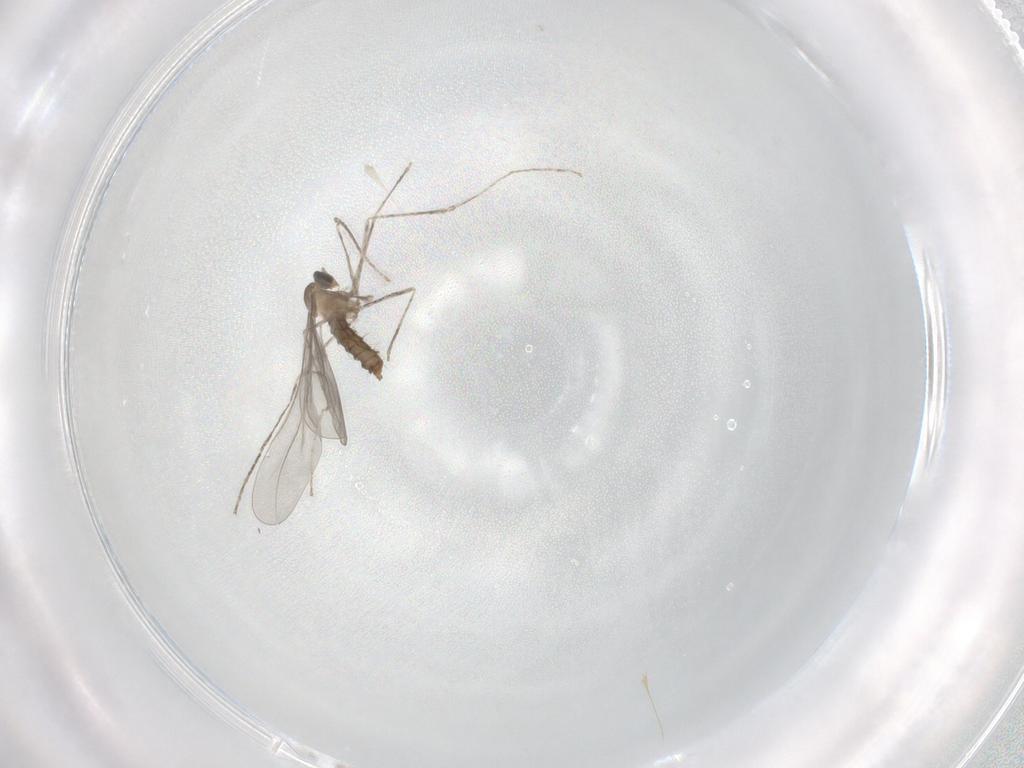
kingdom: Animalia
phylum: Arthropoda
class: Insecta
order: Diptera
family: Cecidomyiidae
